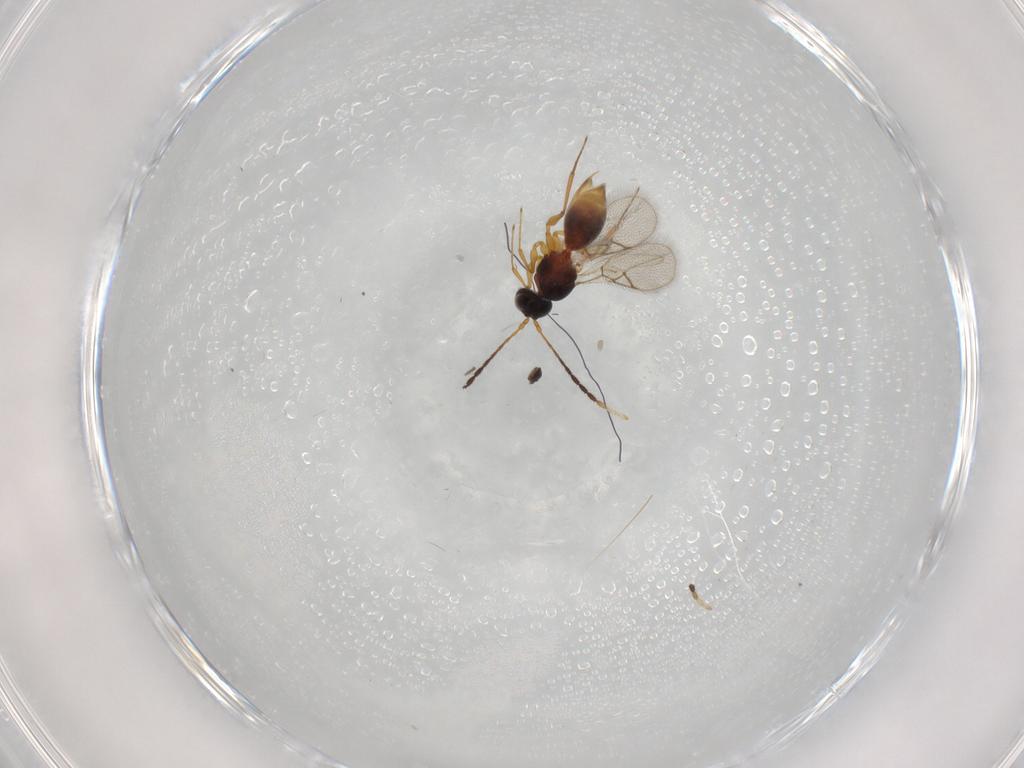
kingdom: Animalia
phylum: Arthropoda
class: Insecta
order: Hymenoptera
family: Figitidae
